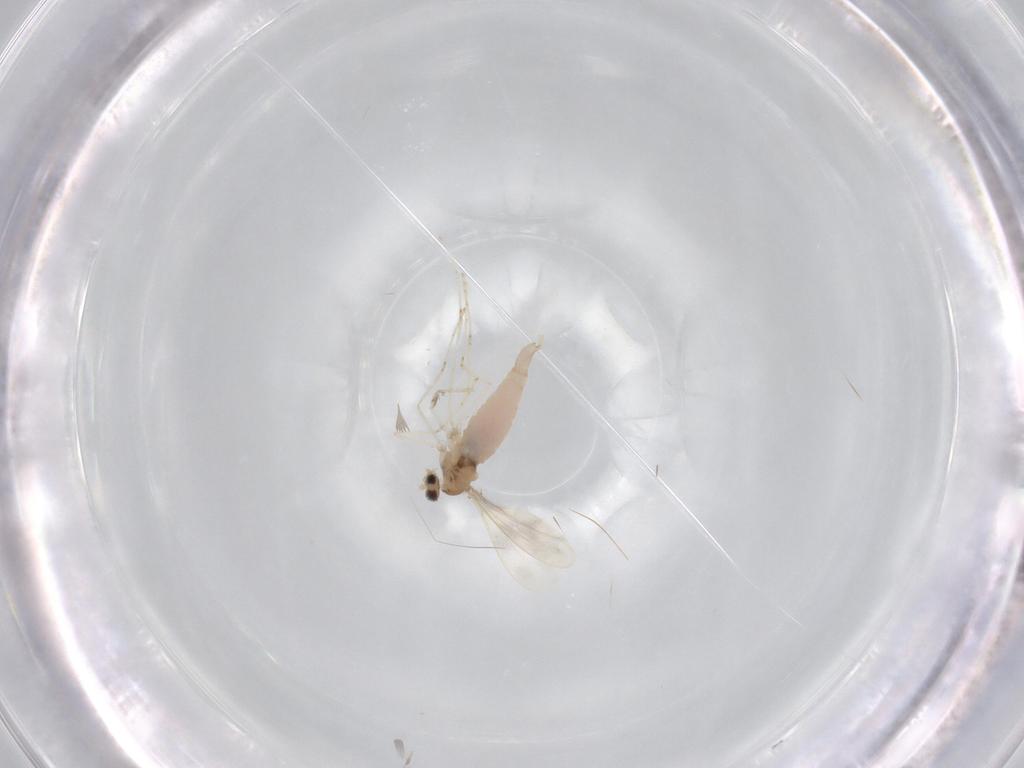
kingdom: Animalia
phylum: Arthropoda
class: Insecta
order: Diptera
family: Cecidomyiidae
